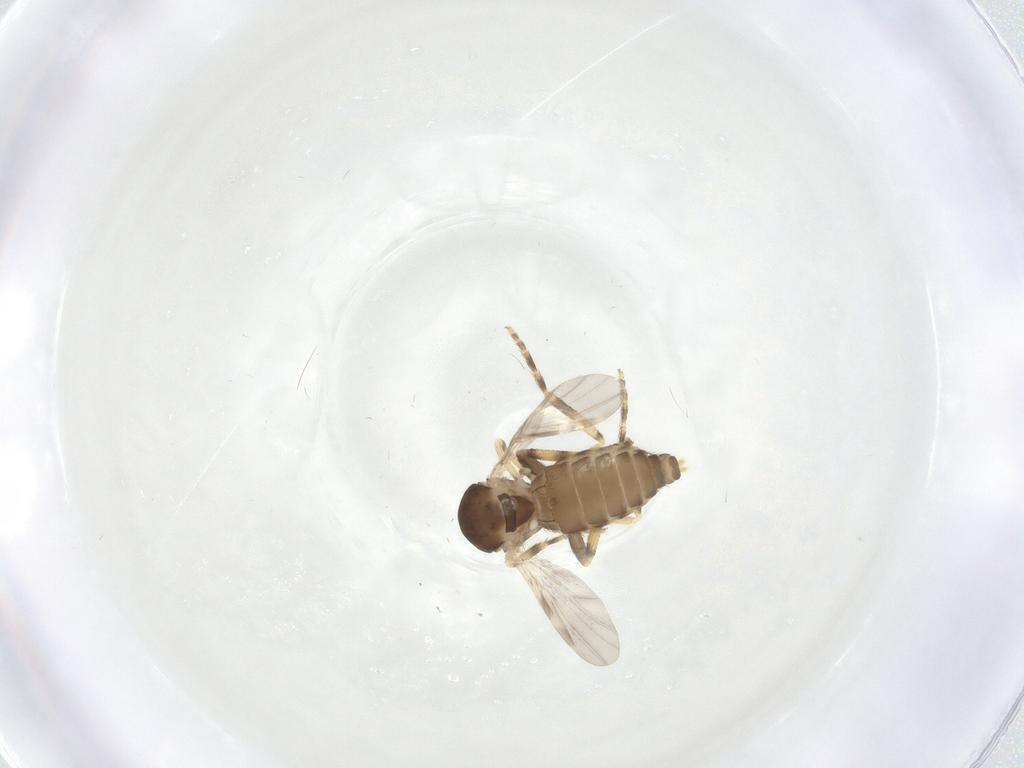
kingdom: Animalia
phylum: Arthropoda
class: Insecta
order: Diptera
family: Ceratopogonidae
